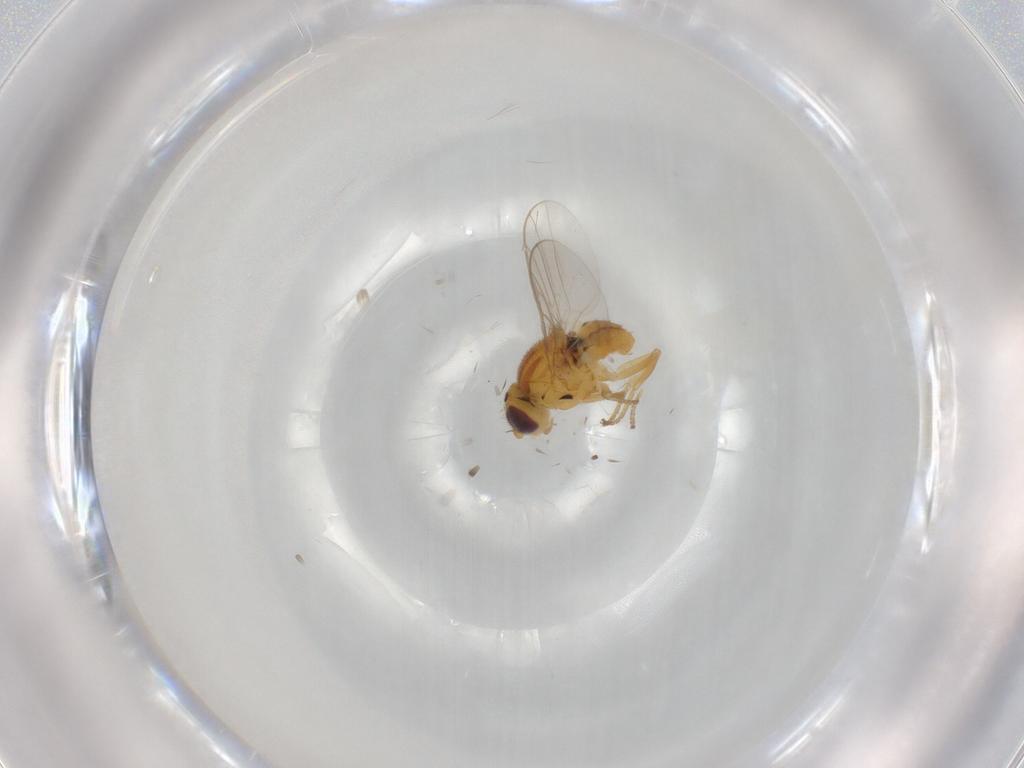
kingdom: Animalia
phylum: Arthropoda
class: Insecta
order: Diptera
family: Chloropidae
